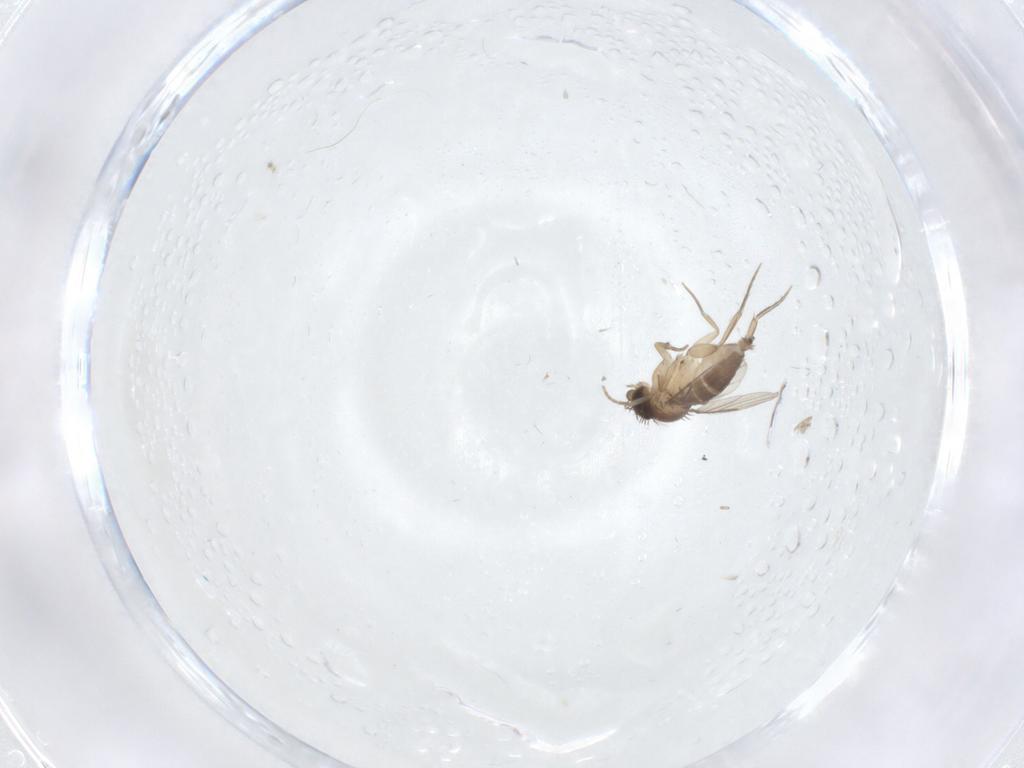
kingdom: Animalia
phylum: Arthropoda
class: Insecta
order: Diptera
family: Phoridae
